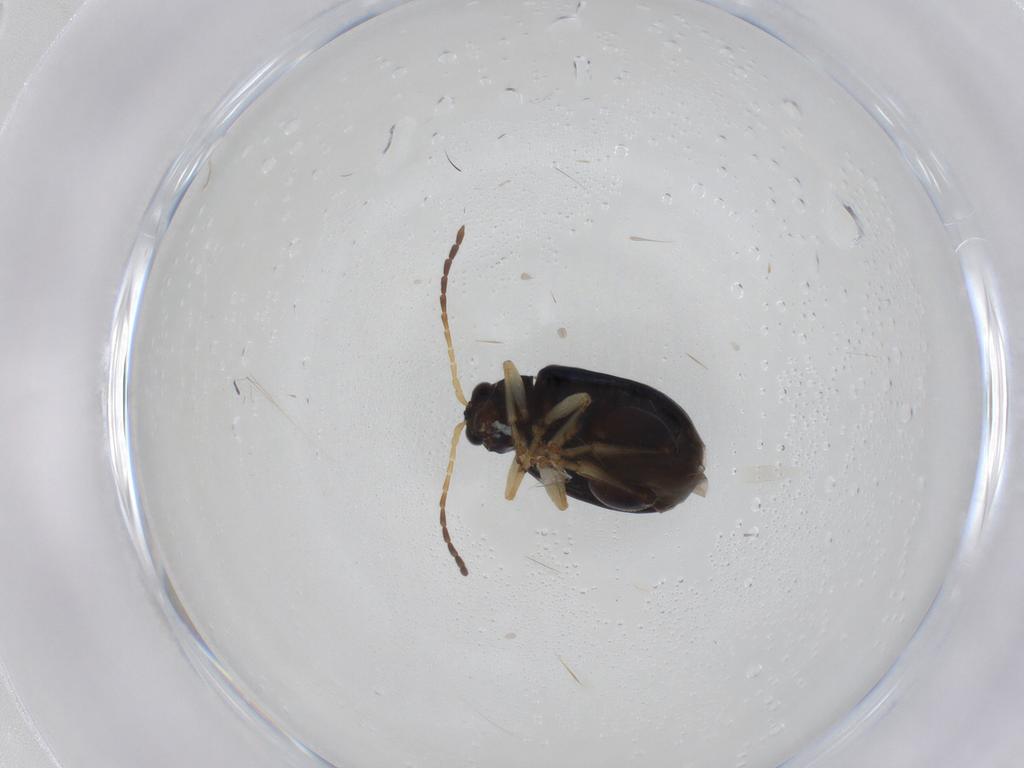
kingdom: Animalia
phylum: Arthropoda
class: Insecta
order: Coleoptera
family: Chrysomelidae
